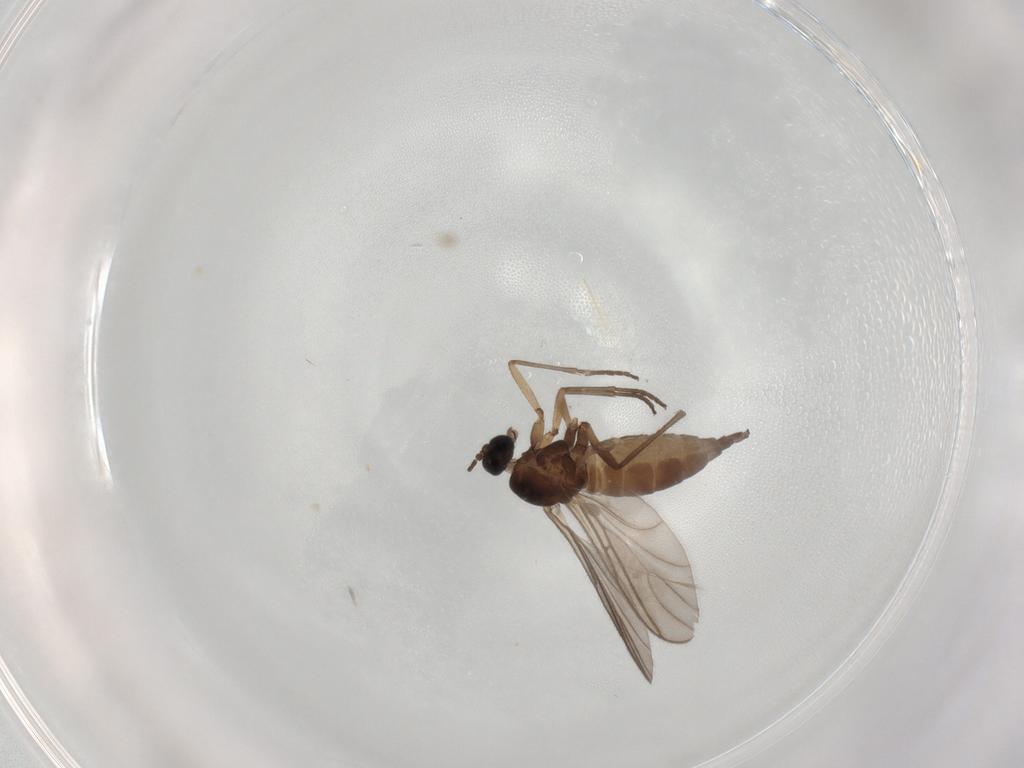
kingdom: Animalia
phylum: Arthropoda
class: Insecta
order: Diptera
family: Sciaridae
